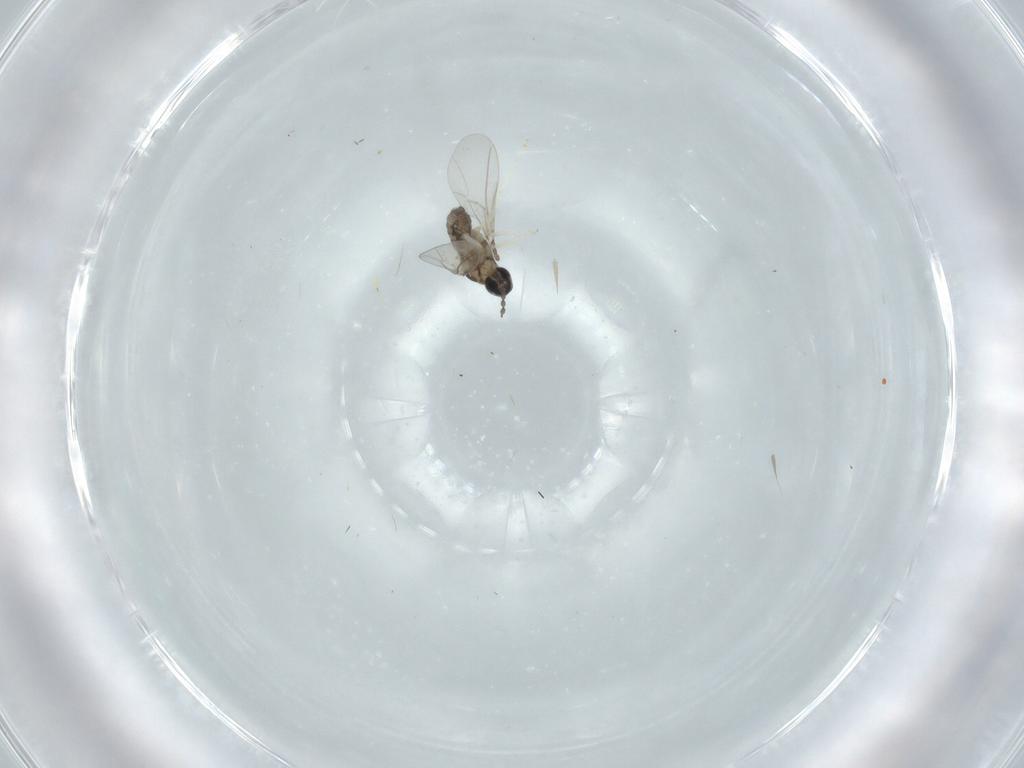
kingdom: Animalia
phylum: Arthropoda
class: Insecta
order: Diptera
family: Cecidomyiidae
